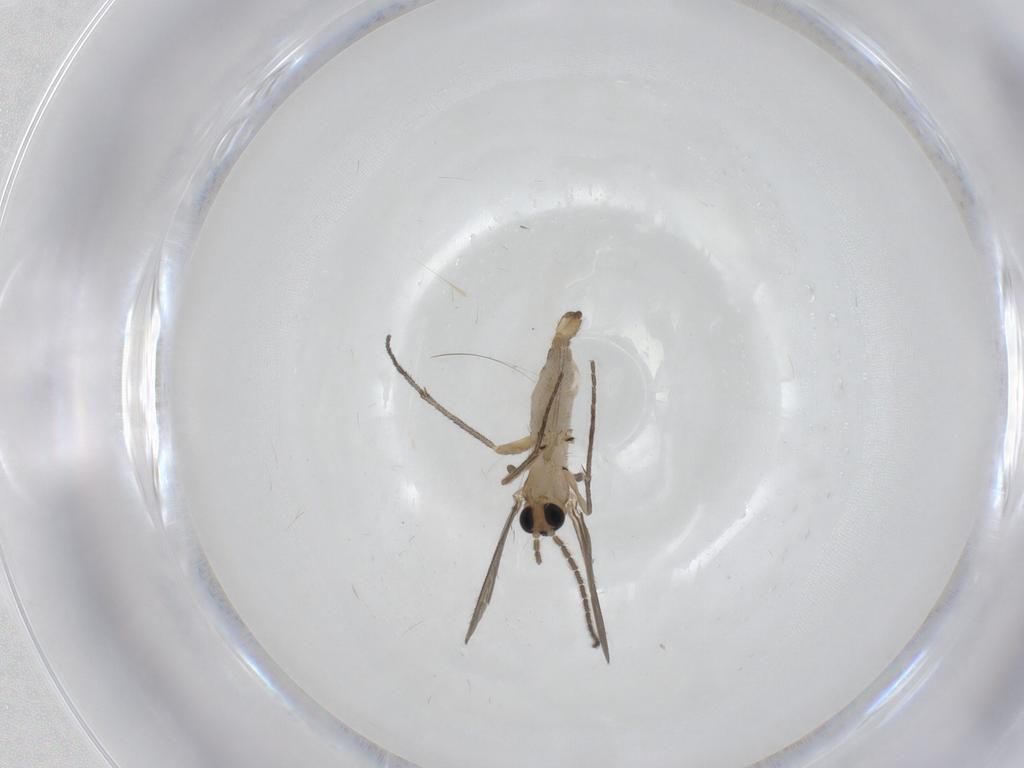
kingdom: Animalia
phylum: Arthropoda
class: Insecta
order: Diptera
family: Sciaridae
